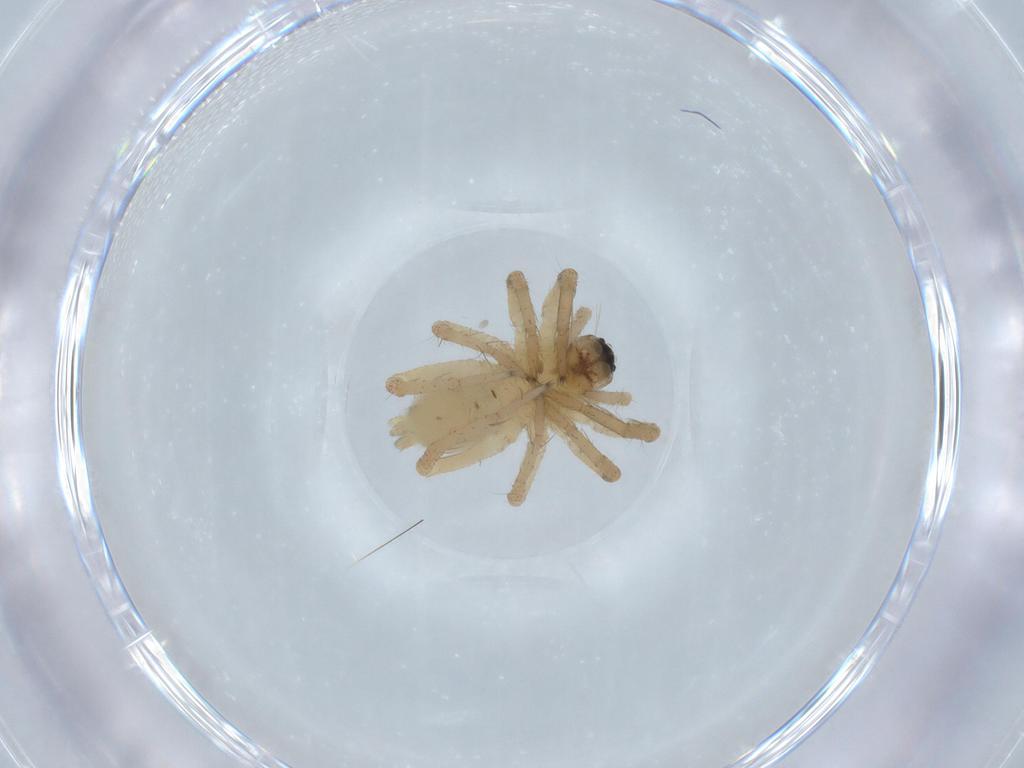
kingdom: Animalia
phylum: Arthropoda
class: Arachnida
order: Araneae
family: Lycosidae
